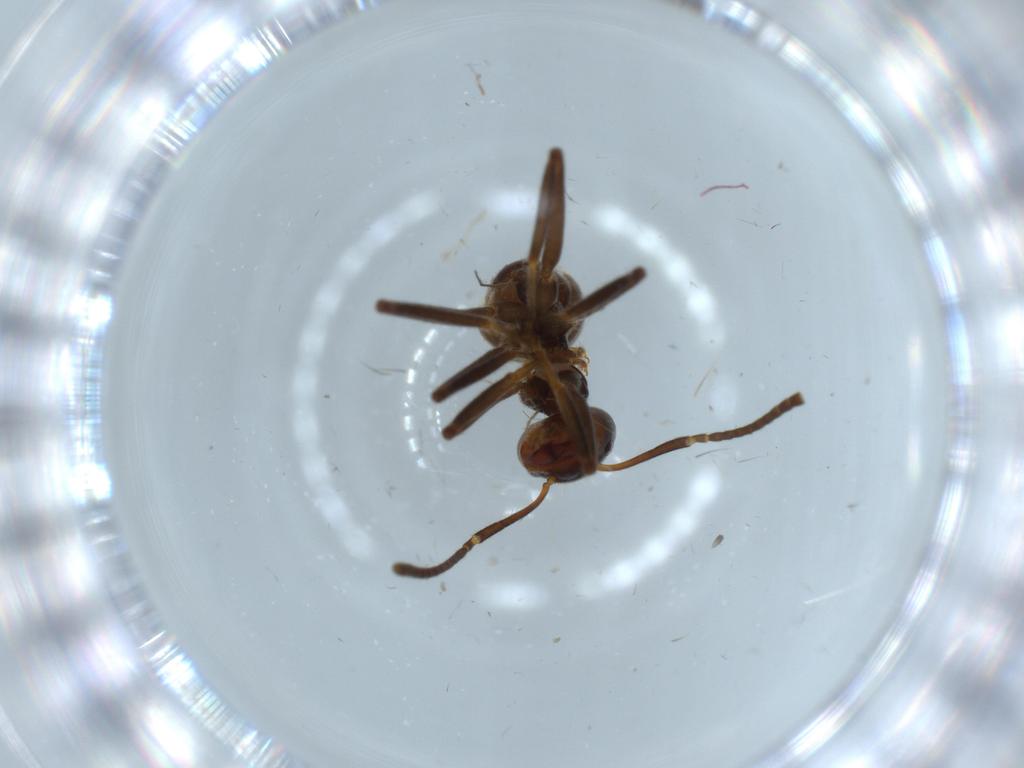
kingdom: Animalia
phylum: Arthropoda
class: Insecta
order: Hymenoptera
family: Formicidae
